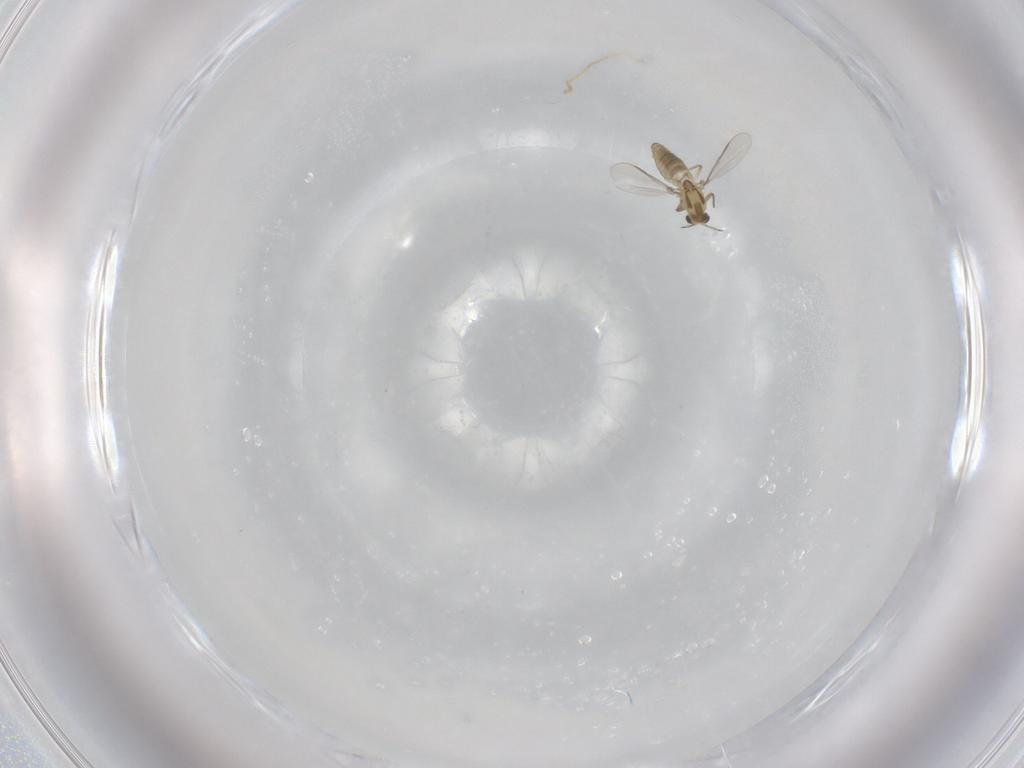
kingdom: Animalia
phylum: Arthropoda
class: Insecta
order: Diptera
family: Chironomidae
